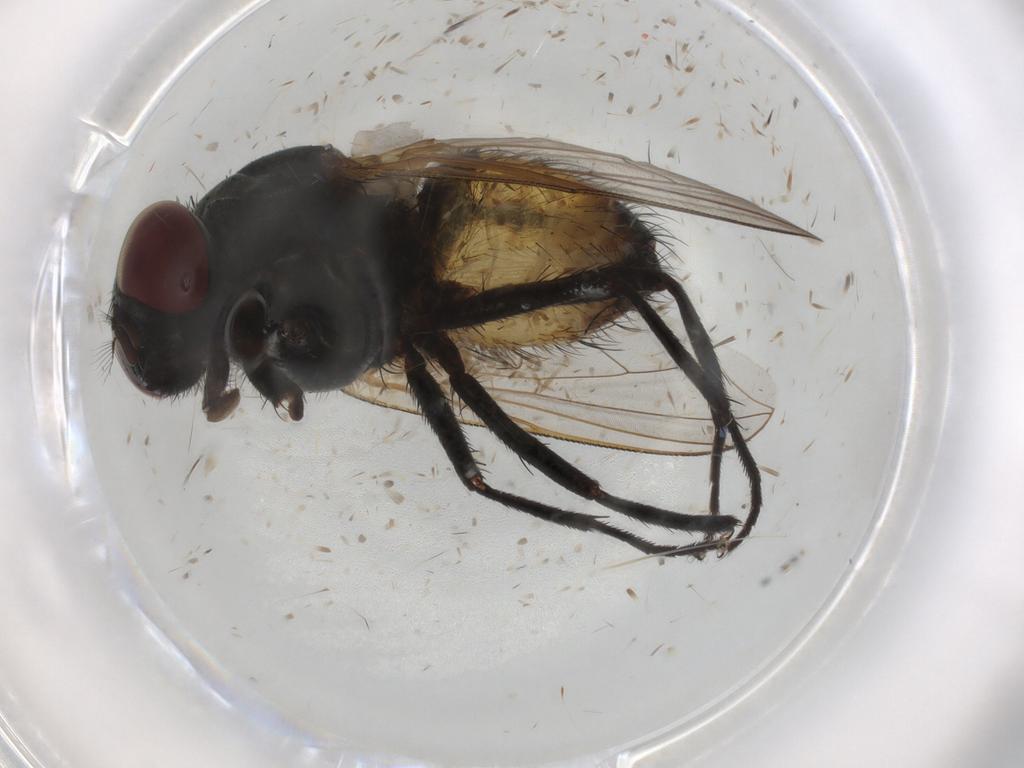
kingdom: Animalia
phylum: Arthropoda
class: Insecta
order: Diptera
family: Muscidae
